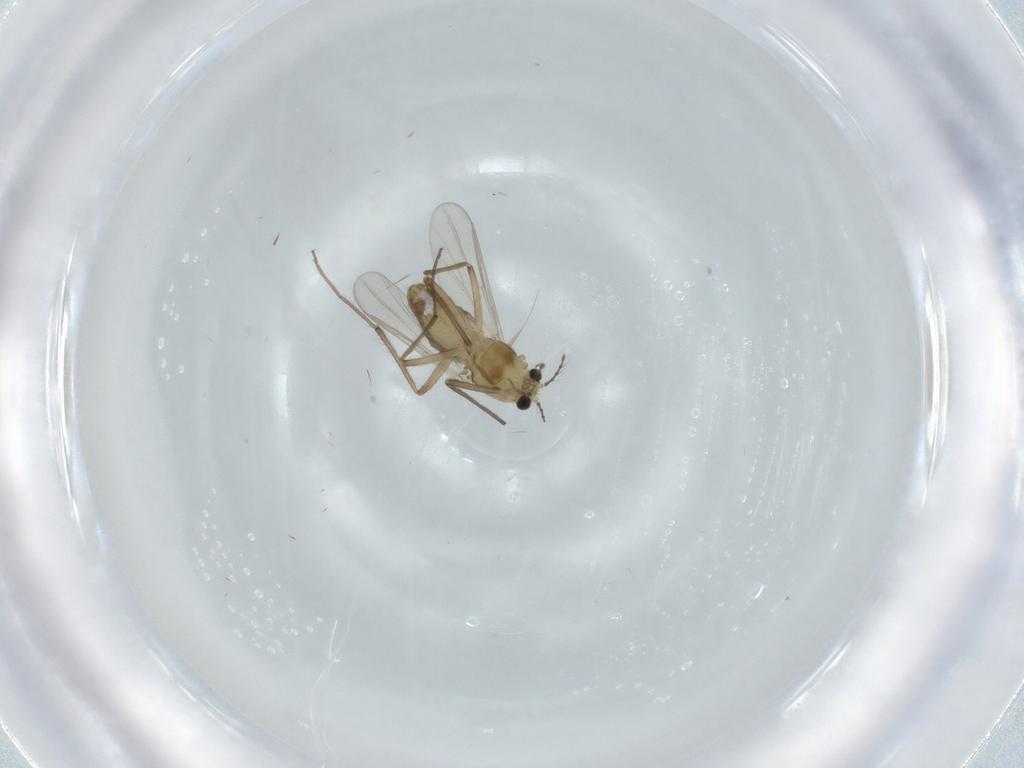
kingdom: Animalia
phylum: Arthropoda
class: Insecta
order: Diptera
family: Chironomidae
